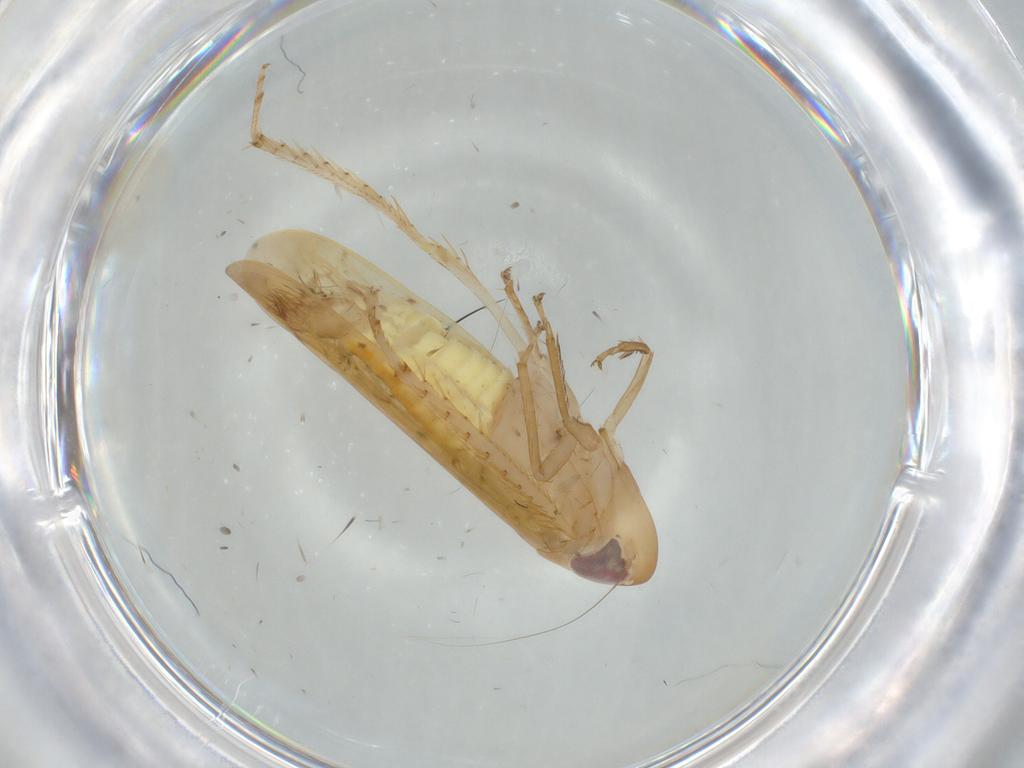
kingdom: Animalia
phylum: Arthropoda
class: Insecta
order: Hemiptera
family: Cicadellidae
